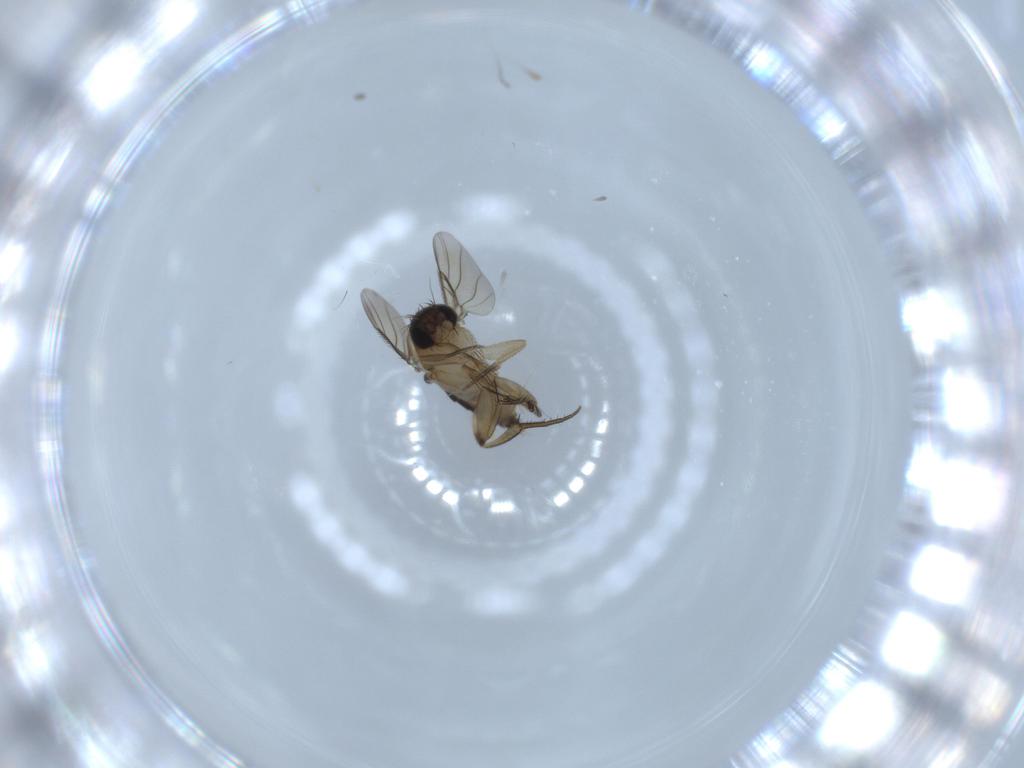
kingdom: Animalia
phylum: Arthropoda
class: Insecta
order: Diptera
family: Phoridae
